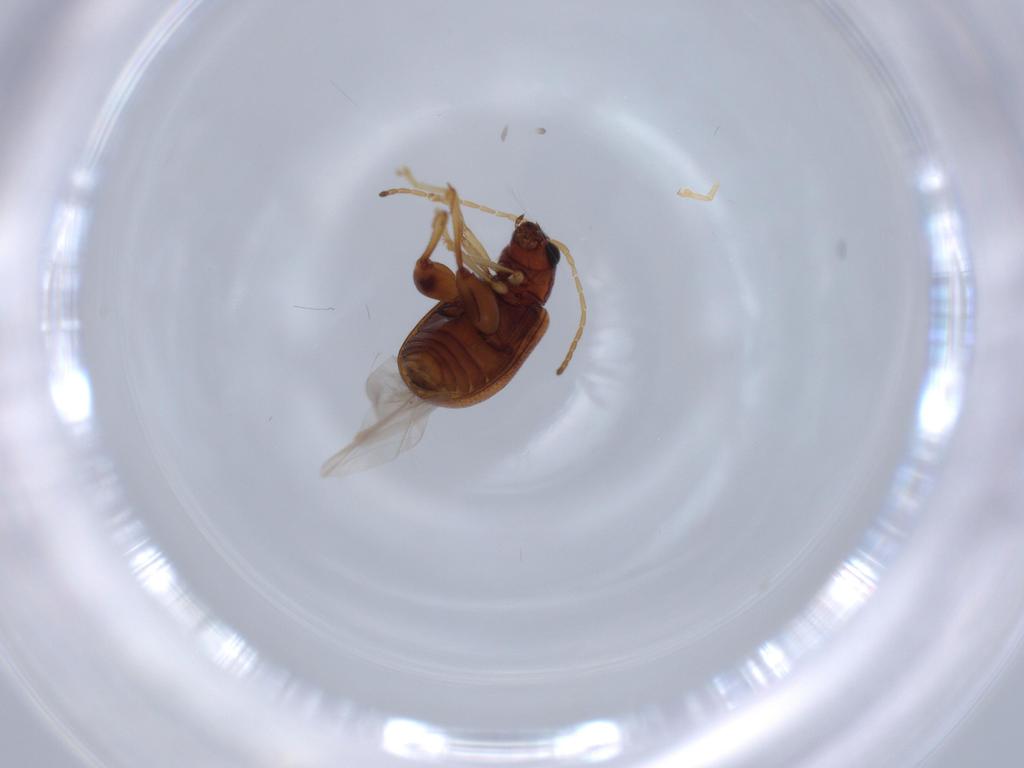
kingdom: Animalia
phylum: Arthropoda
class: Insecta
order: Coleoptera
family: Chrysomelidae
